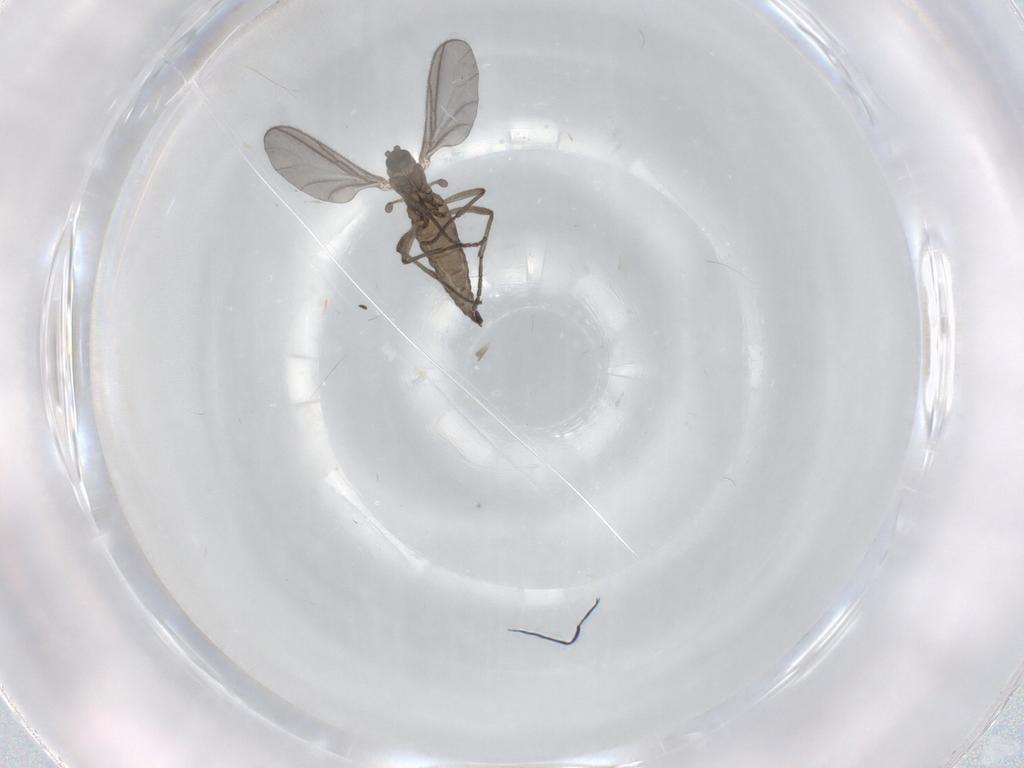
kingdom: Animalia
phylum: Arthropoda
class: Insecta
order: Diptera
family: Sciaridae
